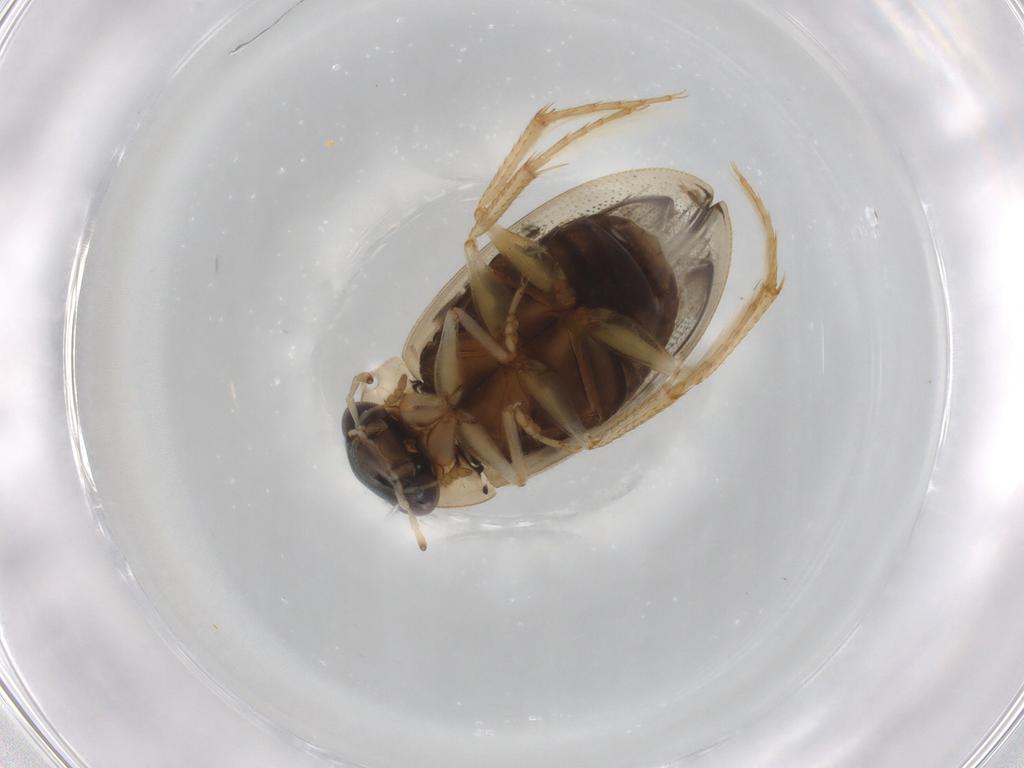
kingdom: Animalia
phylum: Arthropoda
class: Insecta
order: Coleoptera
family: Hydrophilidae
